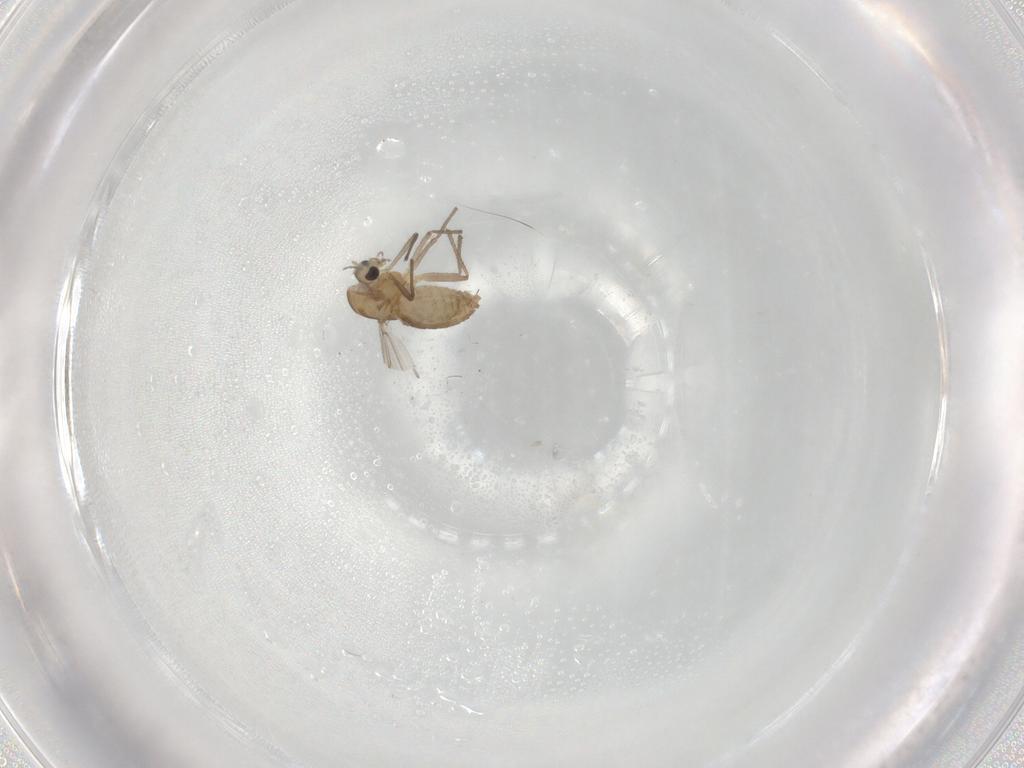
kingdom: Animalia
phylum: Arthropoda
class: Insecta
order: Diptera
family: Chironomidae
